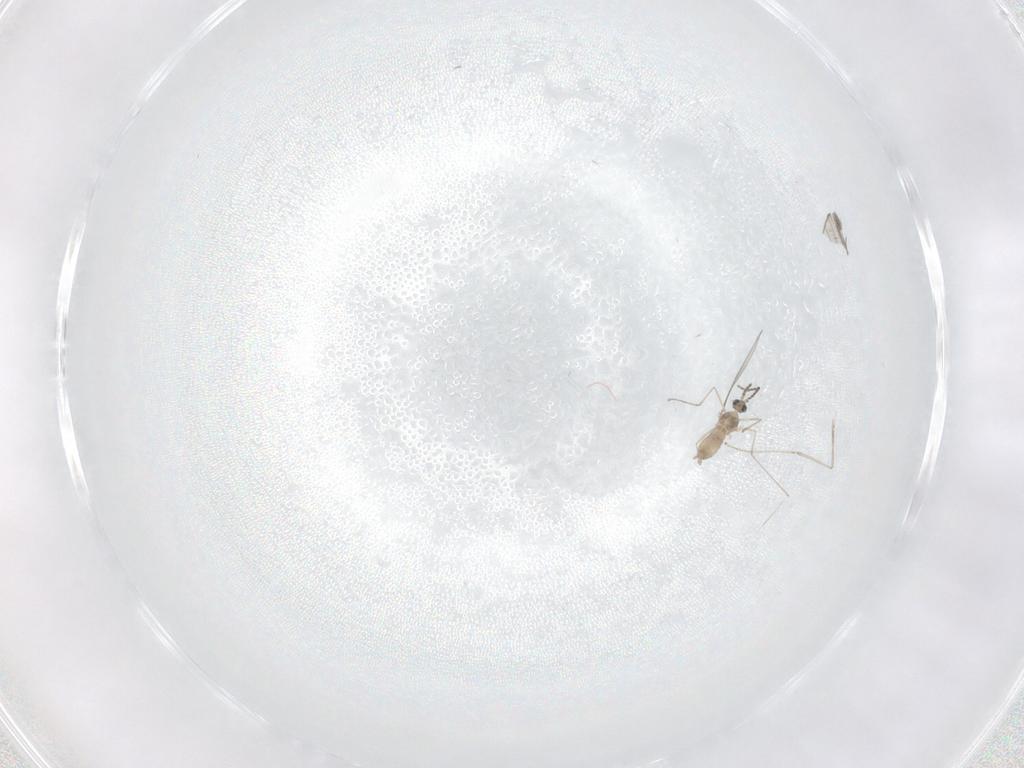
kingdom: Animalia
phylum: Arthropoda
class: Insecta
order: Diptera
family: Cecidomyiidae
